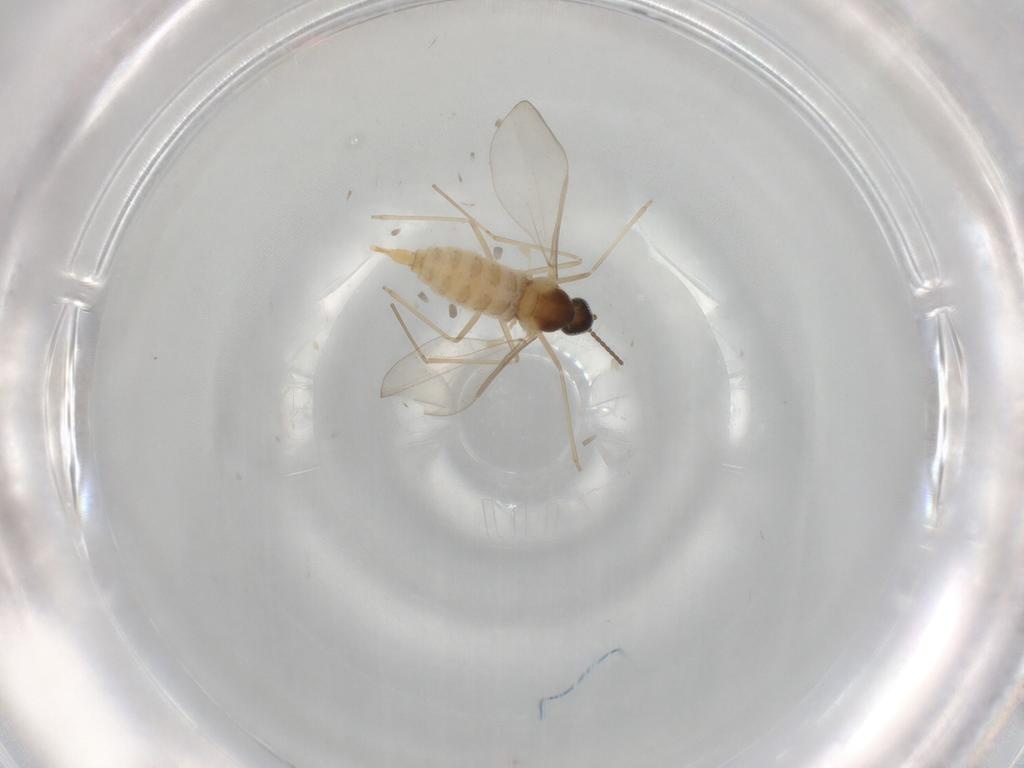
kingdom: Animalia
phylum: Arthropoda
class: Insecta
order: Diptera
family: Cecidomyiidae
